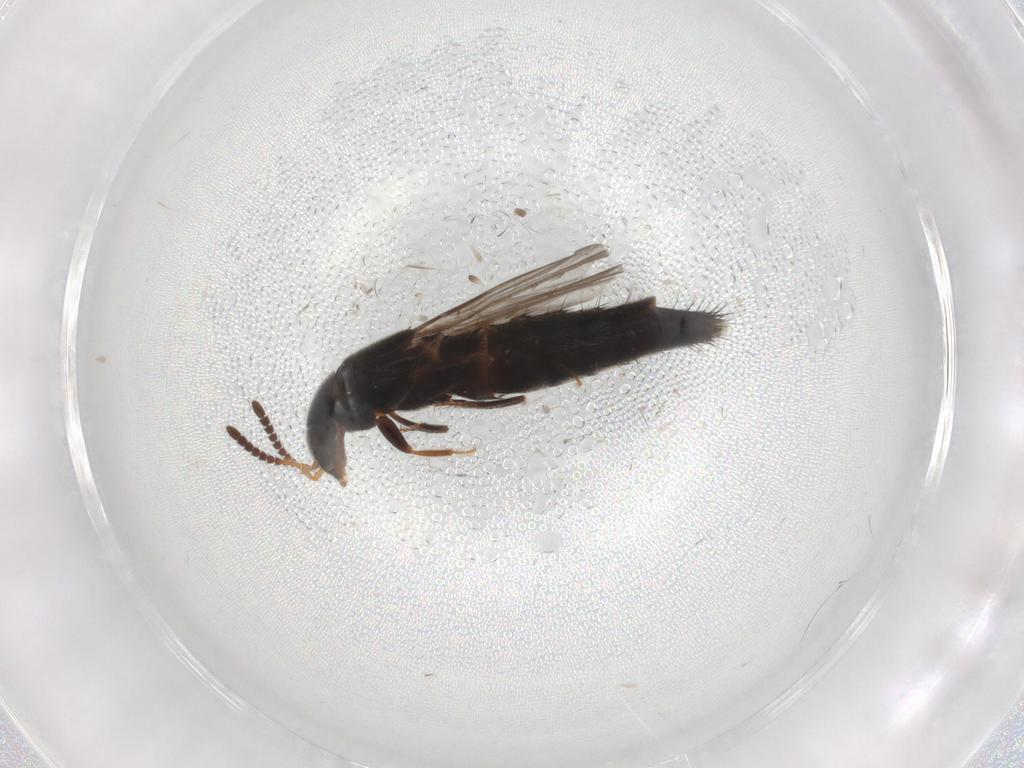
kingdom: Animalia
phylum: Arthropoda
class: Insecta
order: Coleoptera
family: Staphylinidae
